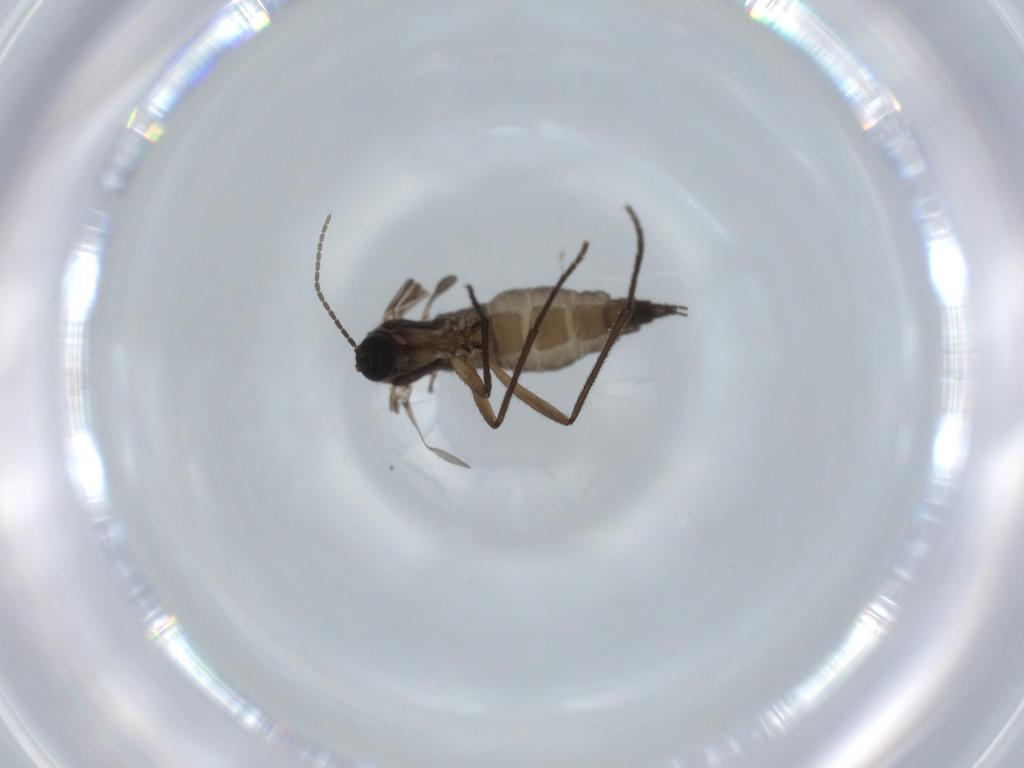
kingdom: Animalia
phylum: Arthropoda
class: Insecta
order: Diptera
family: Sciaridae
